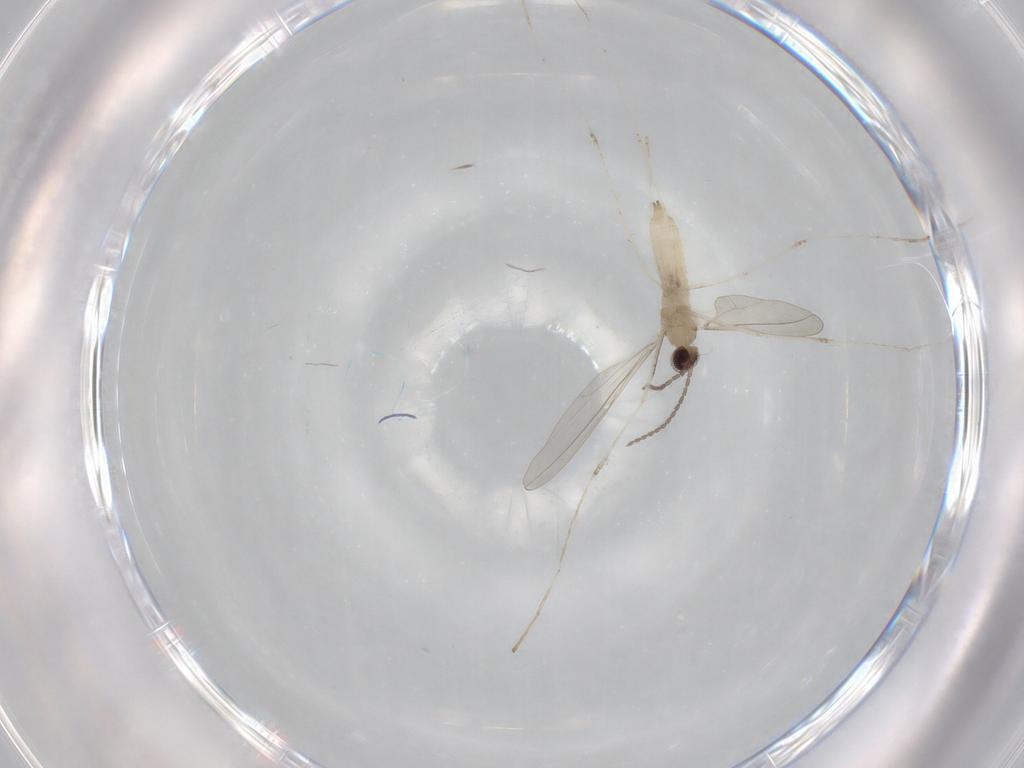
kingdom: Animalia
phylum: Arthropoda
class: Insecta
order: Diptera
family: Cecidomyiidae
